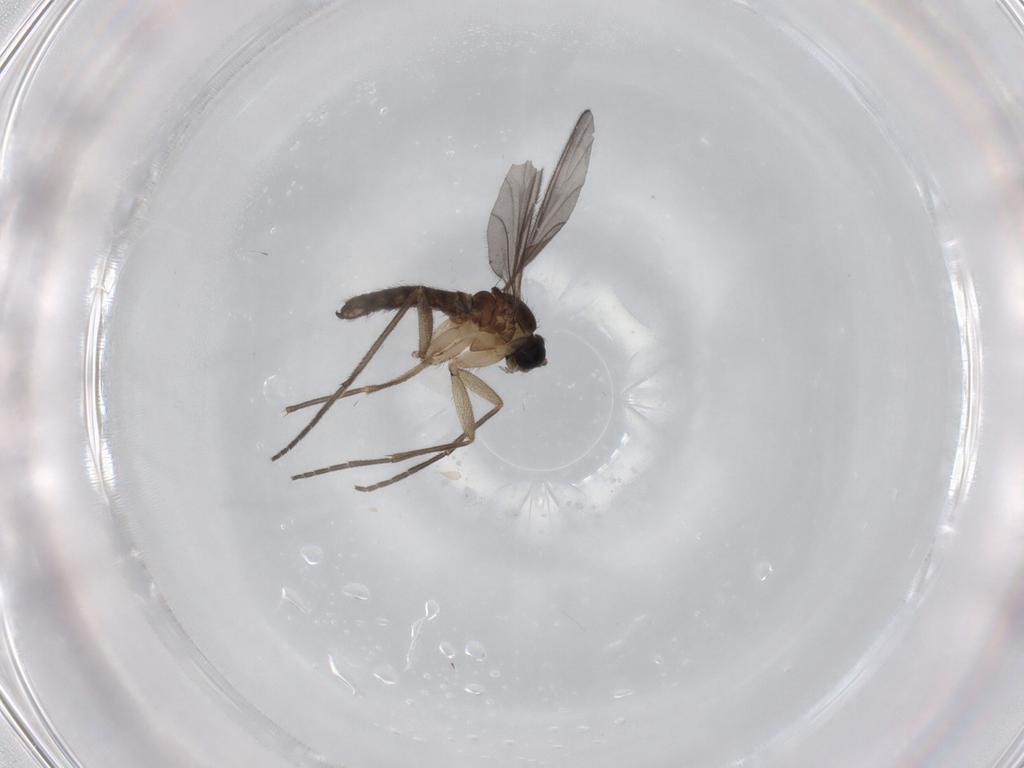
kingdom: Animalia
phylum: Arthropoda
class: Insecta
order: Diptera
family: Sciaridae
